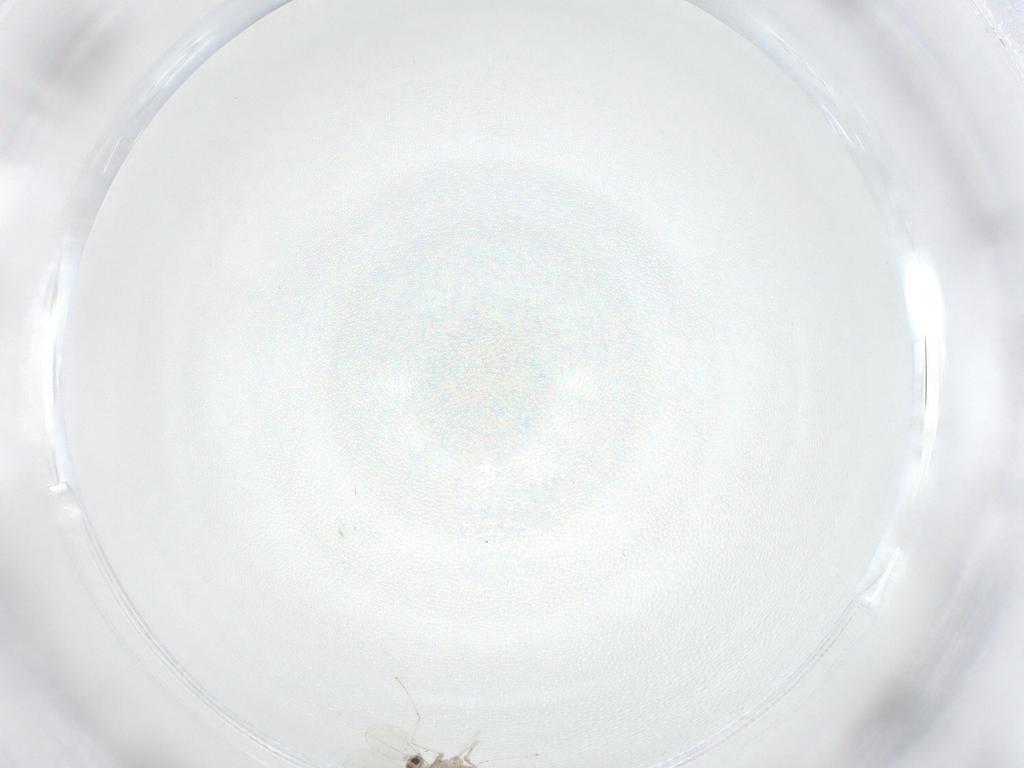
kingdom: Animalia
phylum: Arthropoda
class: Insecta
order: Diptera
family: Cecidomyiidae
